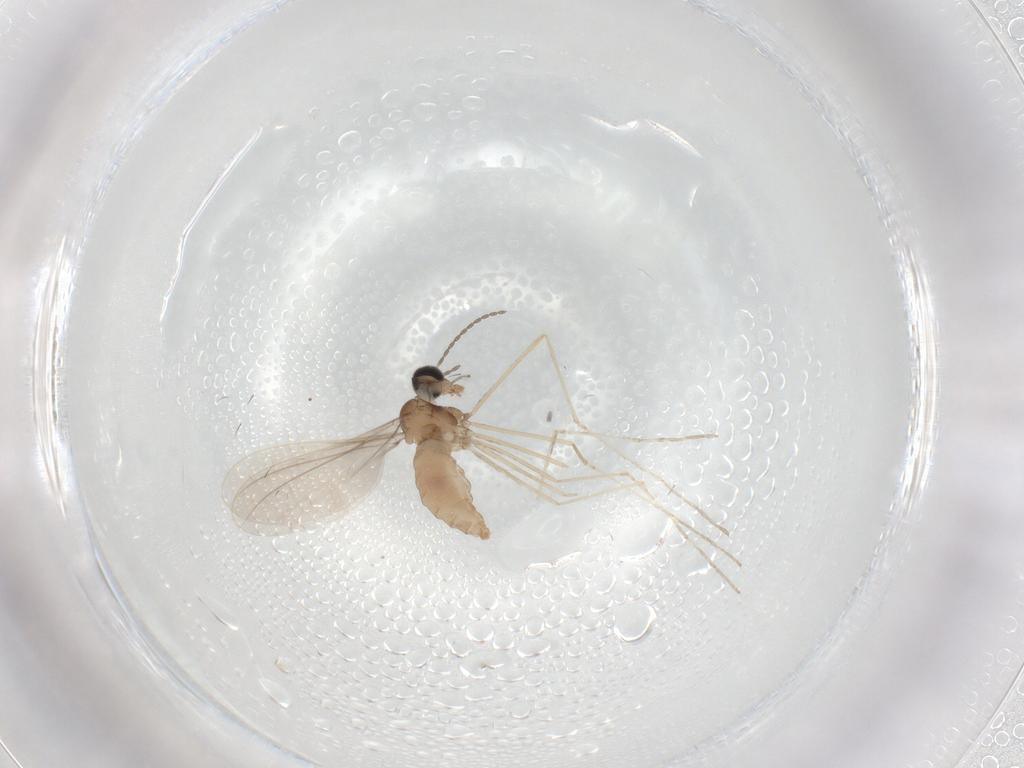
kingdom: Animalia
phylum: Arthropoda
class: Insecta
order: Diptera
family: Cecidomyiidae
